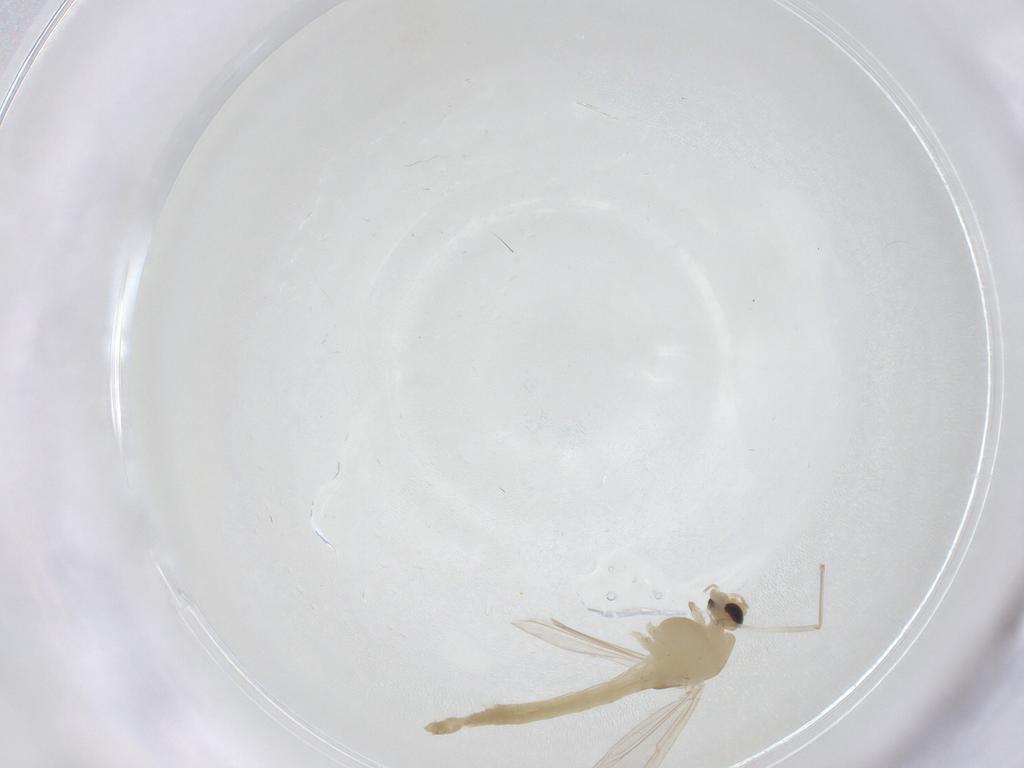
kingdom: Animalia
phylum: Arthropoda
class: Insecta
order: Diptera
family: Chironomidae
